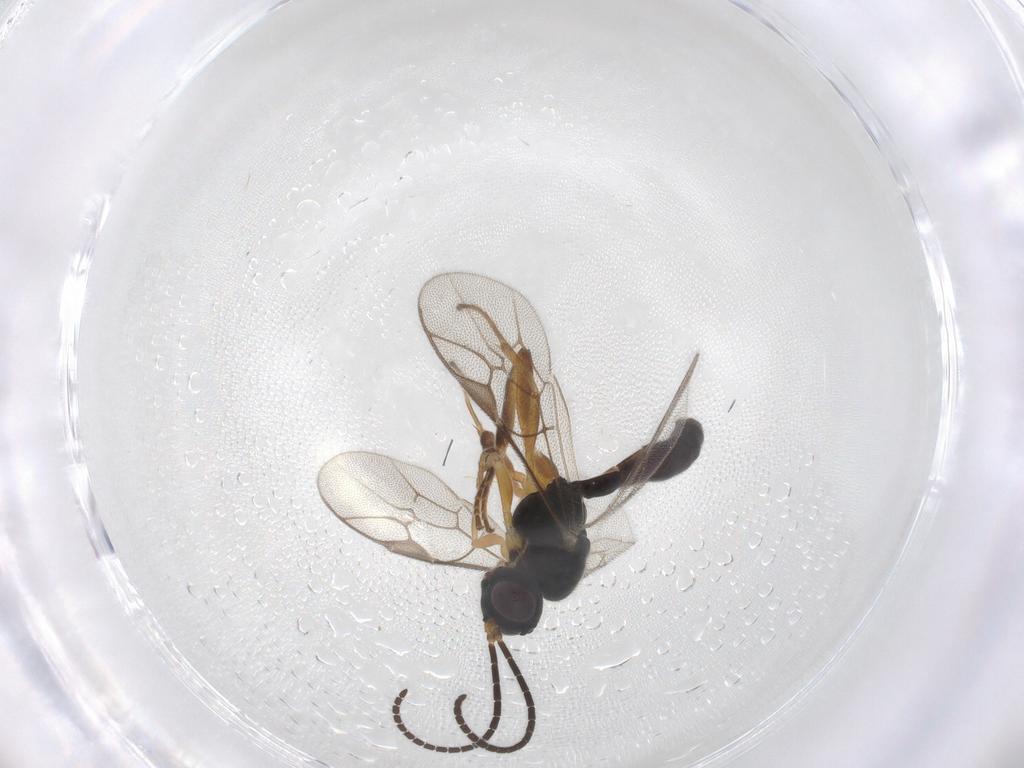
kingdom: Animalia
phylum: Arthropoda
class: Insecta
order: Hymenoptera
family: Ichneumonidae
